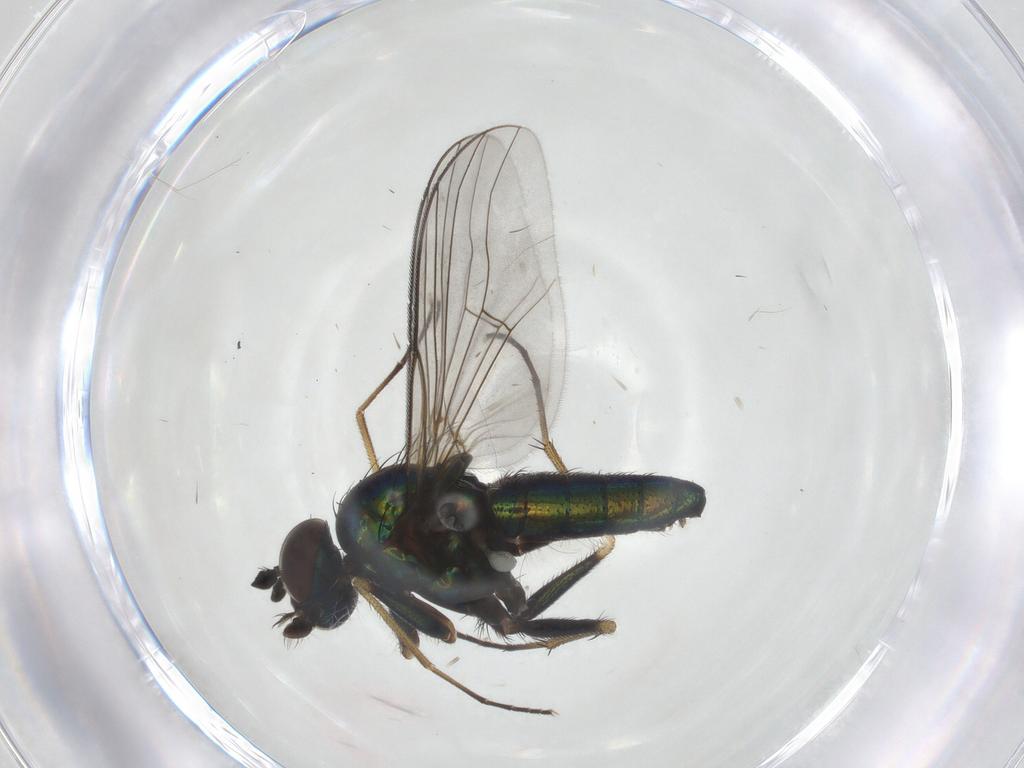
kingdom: Animalia
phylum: Arthropoda
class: Insecta
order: Diptera
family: Dolichopodidae
